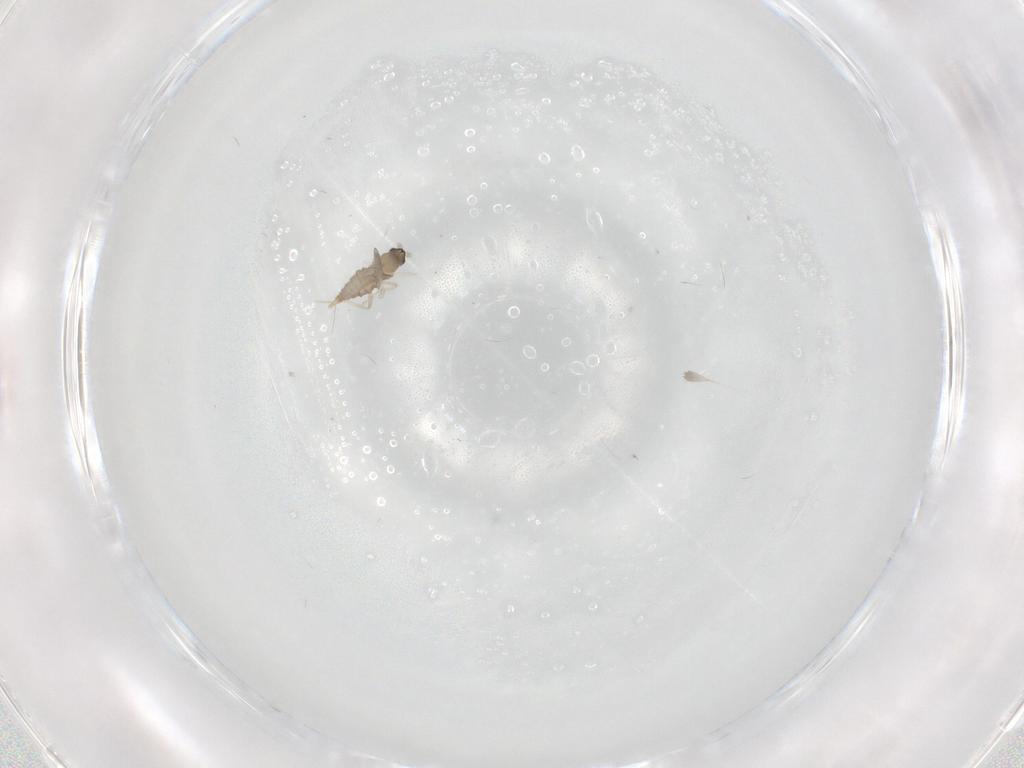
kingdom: Animalia
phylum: Arthropoda
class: Insecta
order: Diptera
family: Cecidomyiidae
